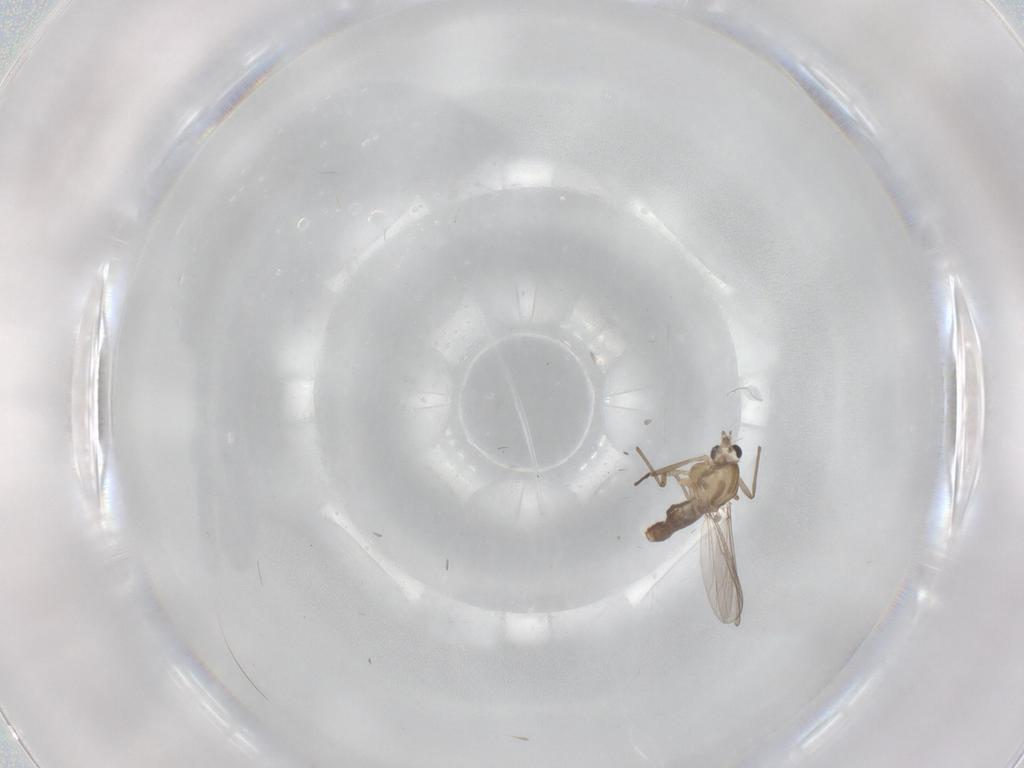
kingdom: Animalia
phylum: Arthropoda
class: Insecta
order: Diptera
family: Chironomidae
